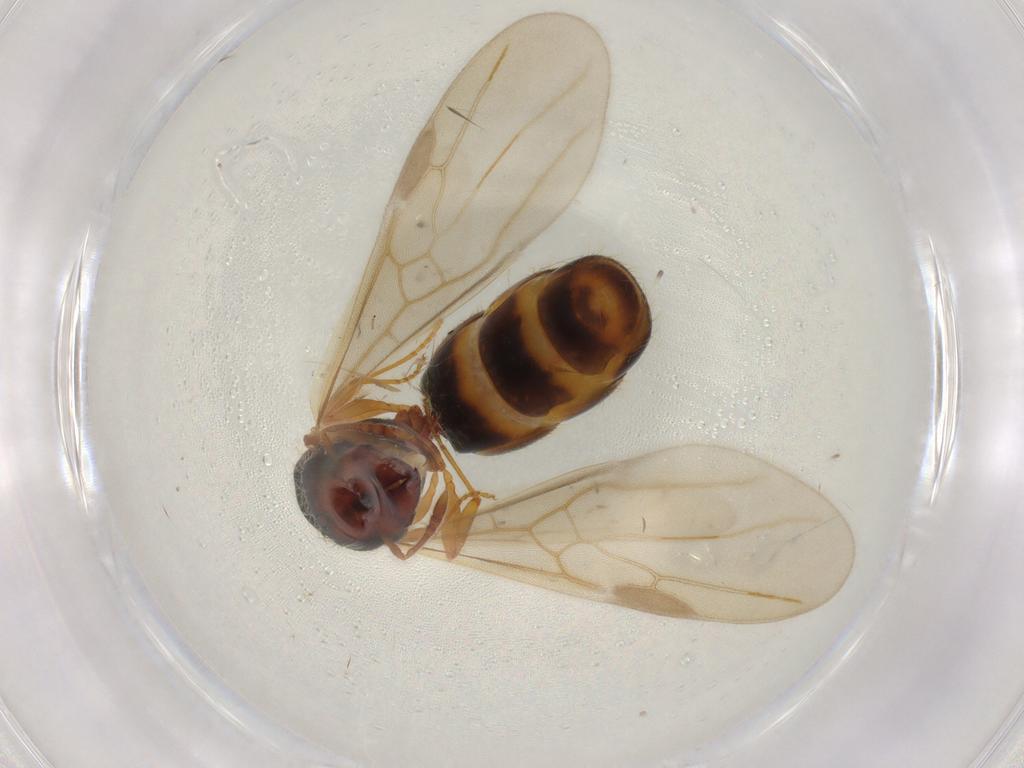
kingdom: Animalia
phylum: Arthropoda
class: Insecta
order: Hymenoptera
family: Formicidae
